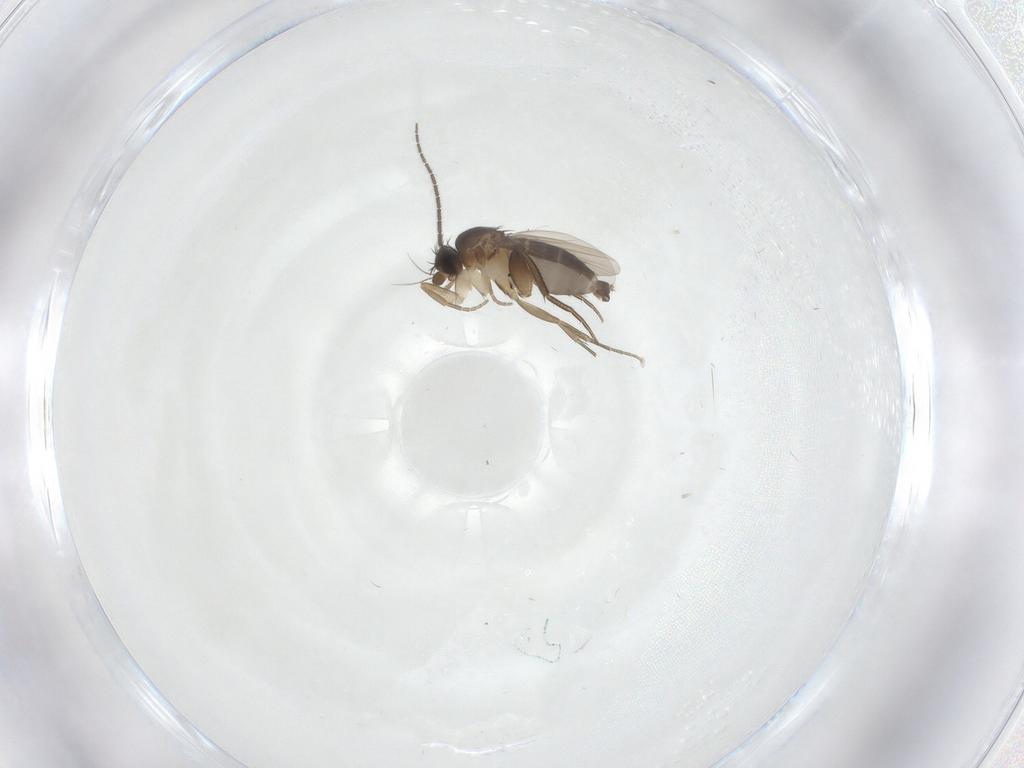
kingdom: Animalia
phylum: Arthropoda
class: Insecta
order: Diptera
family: Phoridae
